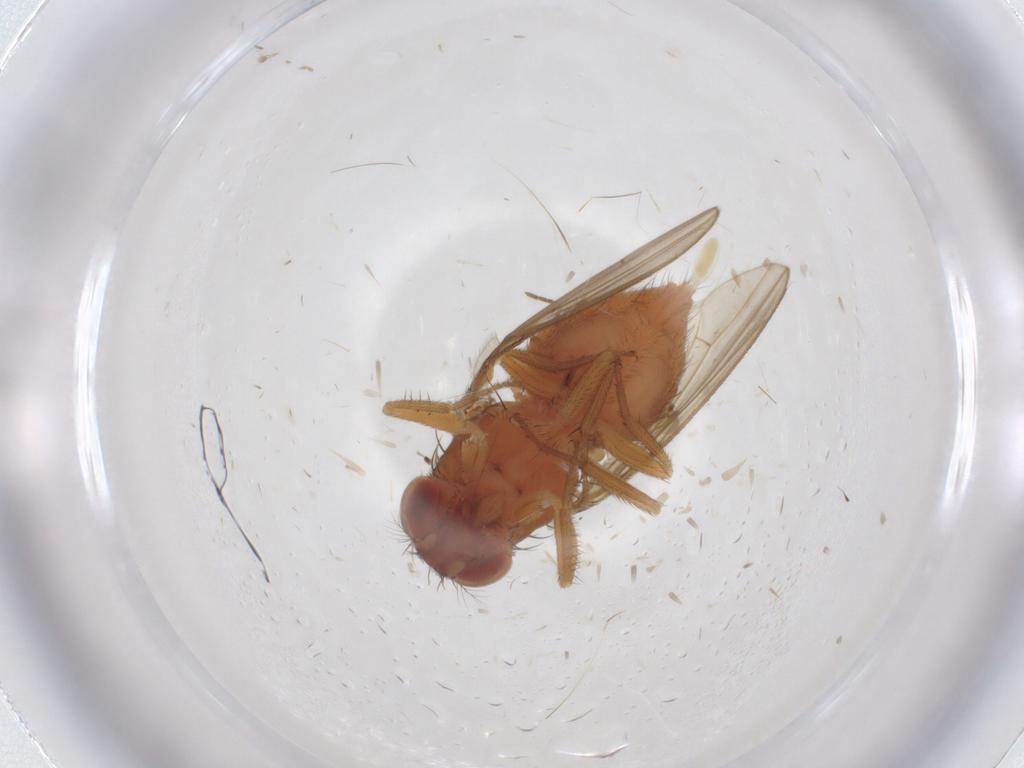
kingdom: Animalia
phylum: Arthropoda
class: Insecta
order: Diptera
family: Drosophilidae
